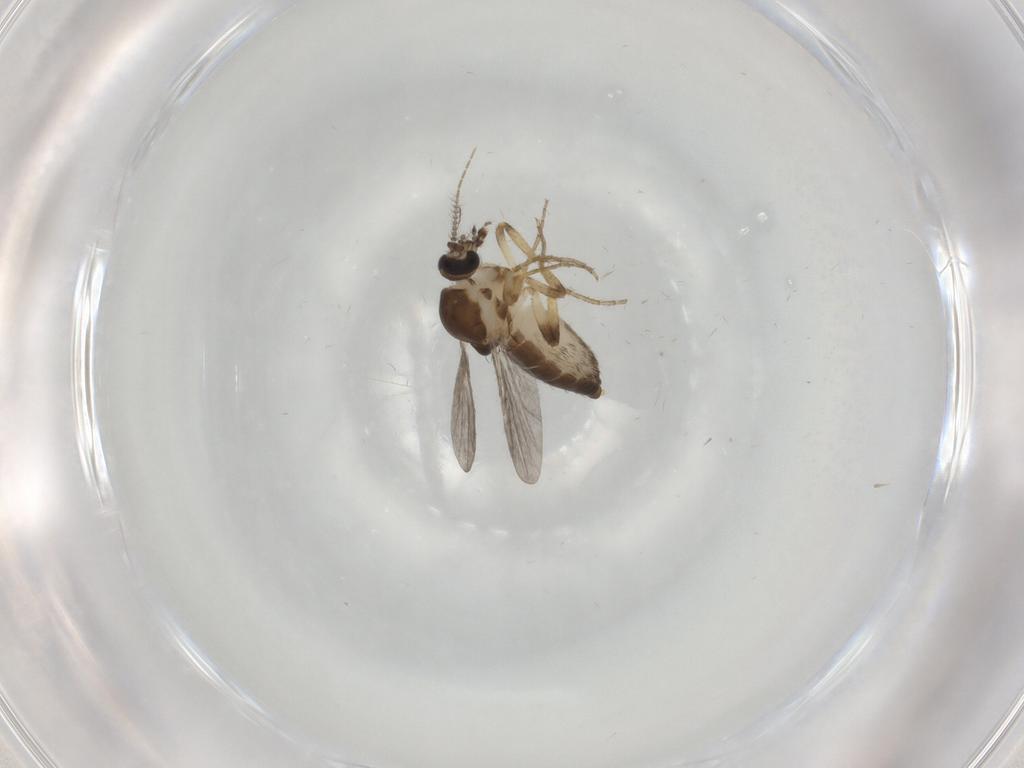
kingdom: Animalia
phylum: Arthropoda
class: Insecta
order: Diptera
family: Ceratopogonidae
